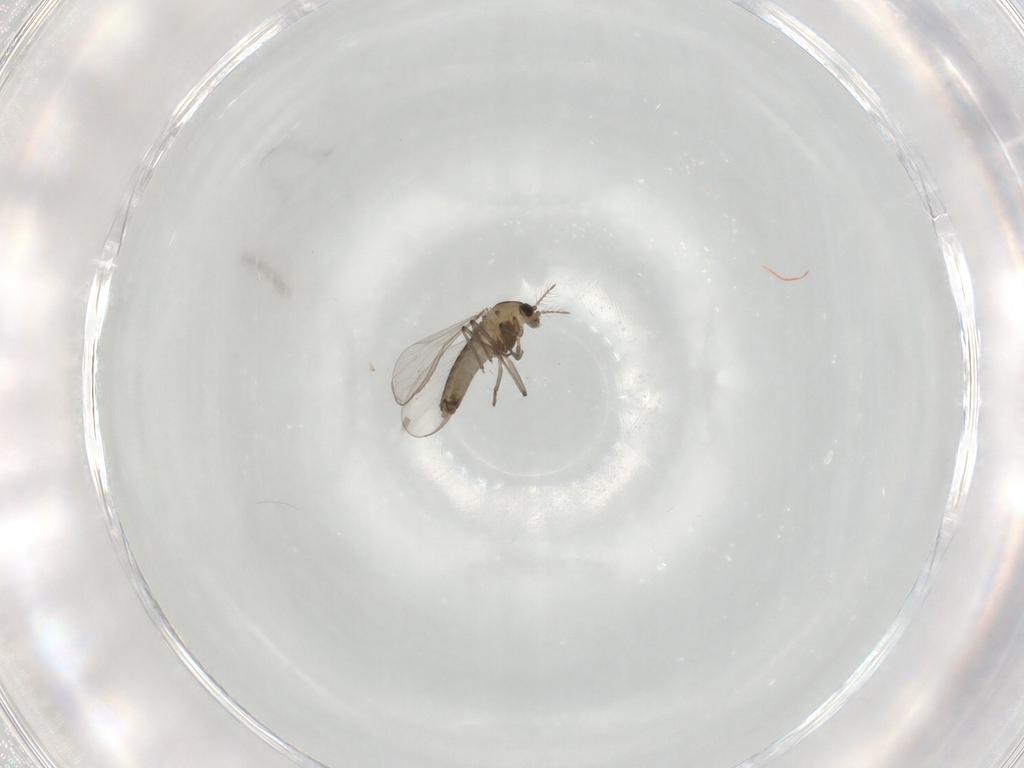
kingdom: Animalia
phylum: Arthropoda
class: Insecta
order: Diptera
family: Chironomidae
